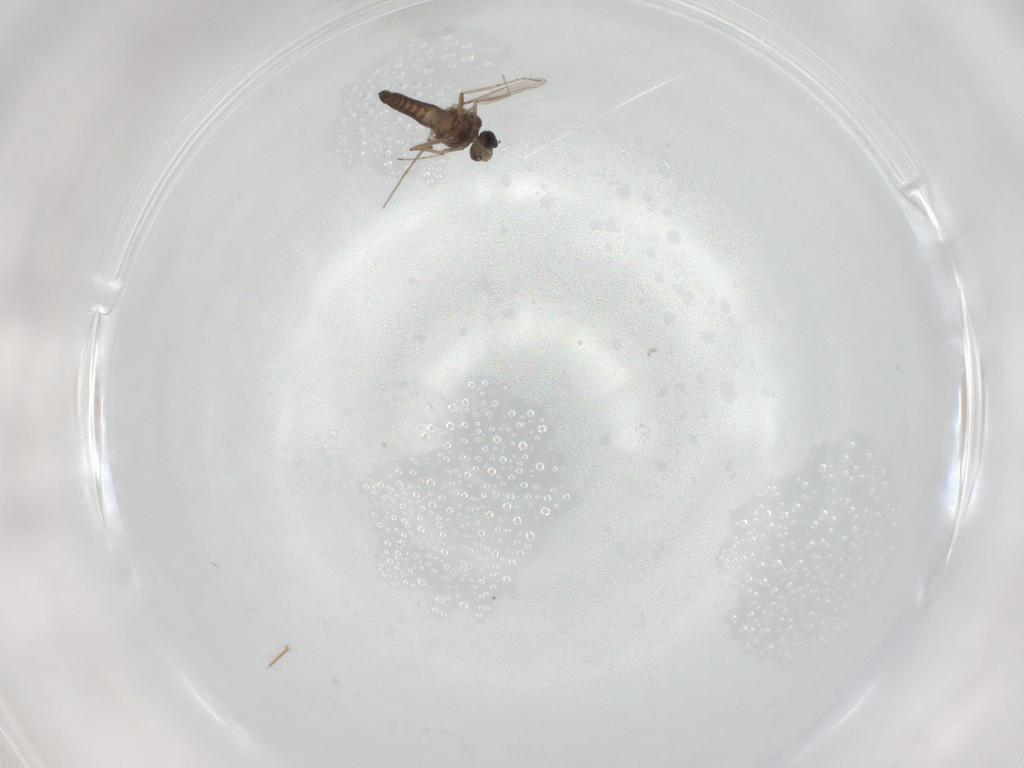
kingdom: Animalia
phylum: Arthropoda
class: Insecta
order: Diptera
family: Ceratopogonidae
